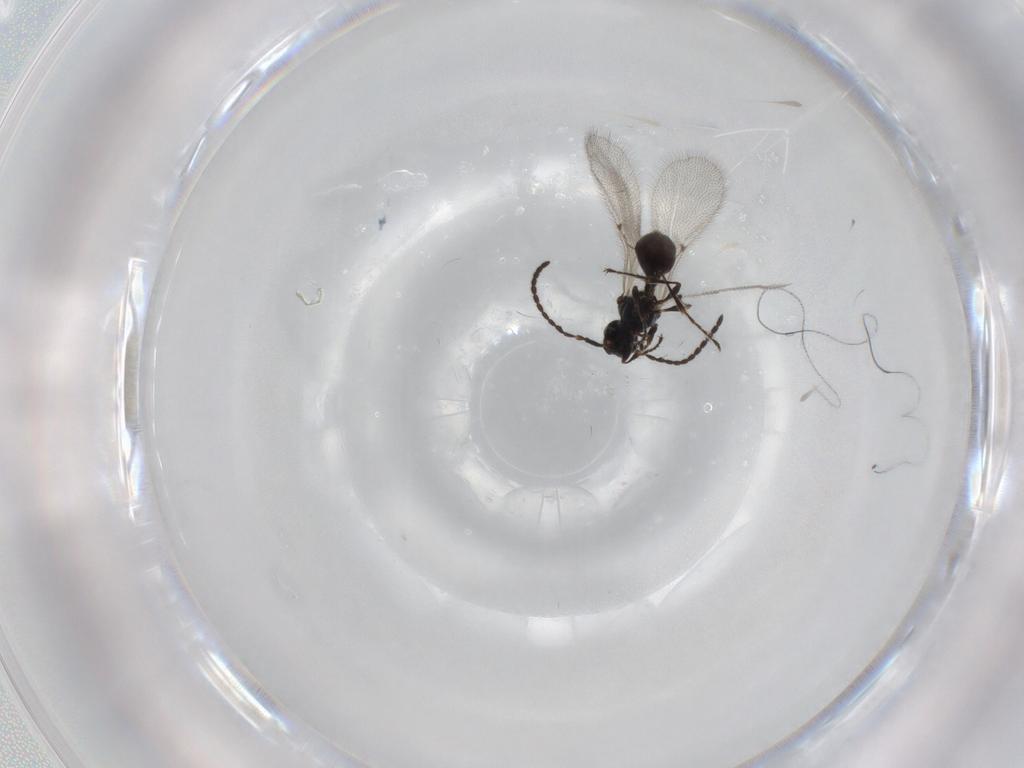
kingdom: Animalia
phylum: Arthropoda
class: Insecta
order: Hymenoptera
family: Diapriidae
